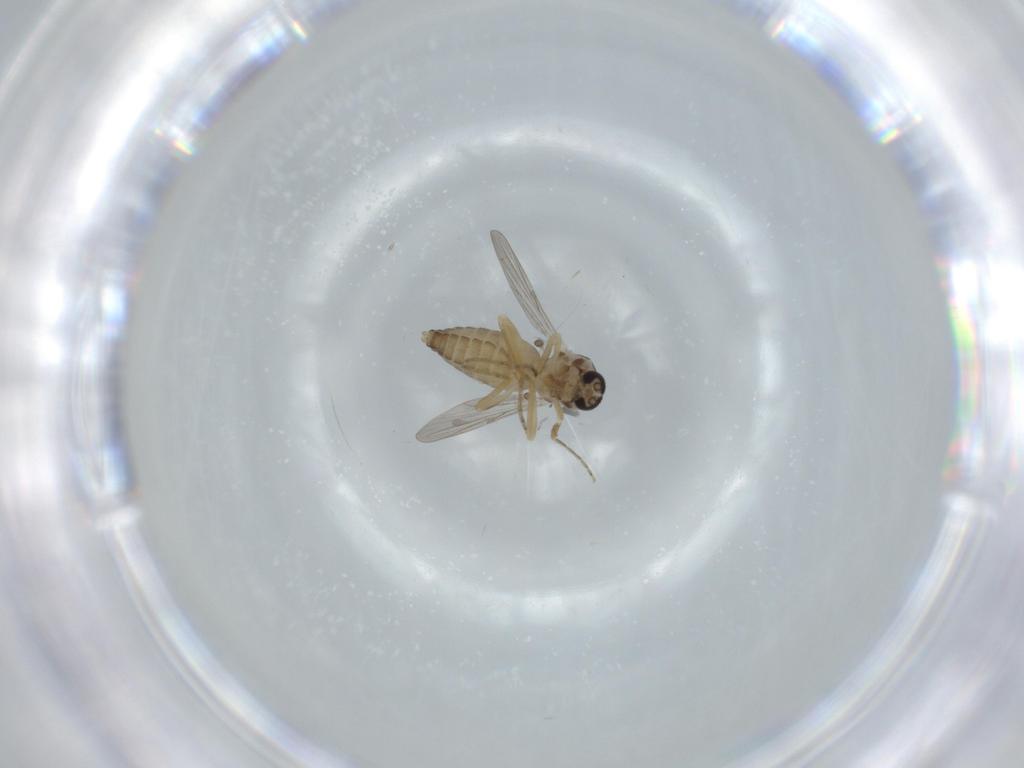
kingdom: Animalia
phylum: Arthropoda
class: Insecta
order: Diptera
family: Ceratopogonidae
